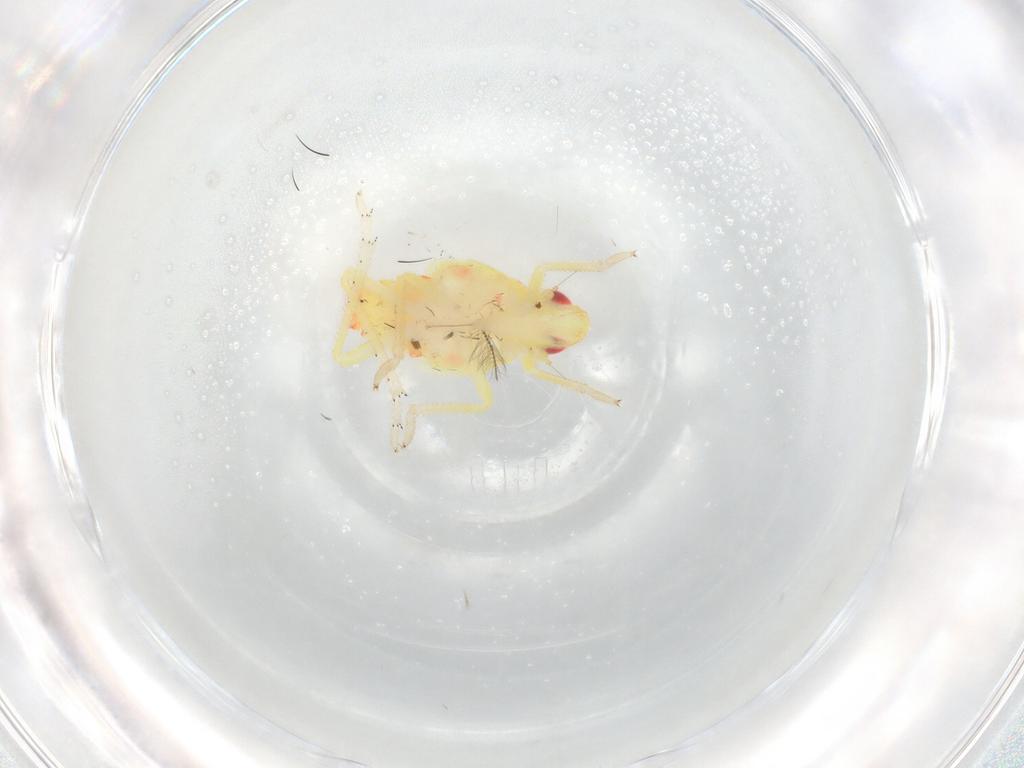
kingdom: Animalia
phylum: Arthropoda
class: Insecta
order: Hemiptera
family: Tropiduchidae
